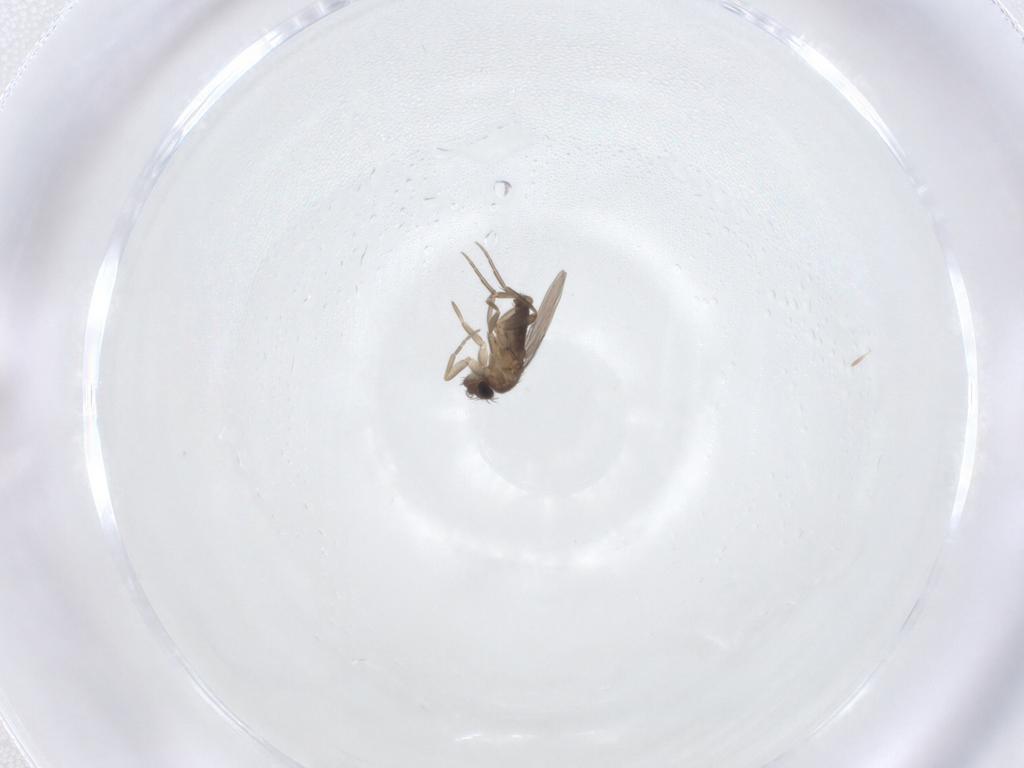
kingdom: Animalia
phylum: Arthropoda
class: Insecta
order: Diptera
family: Phoridae
